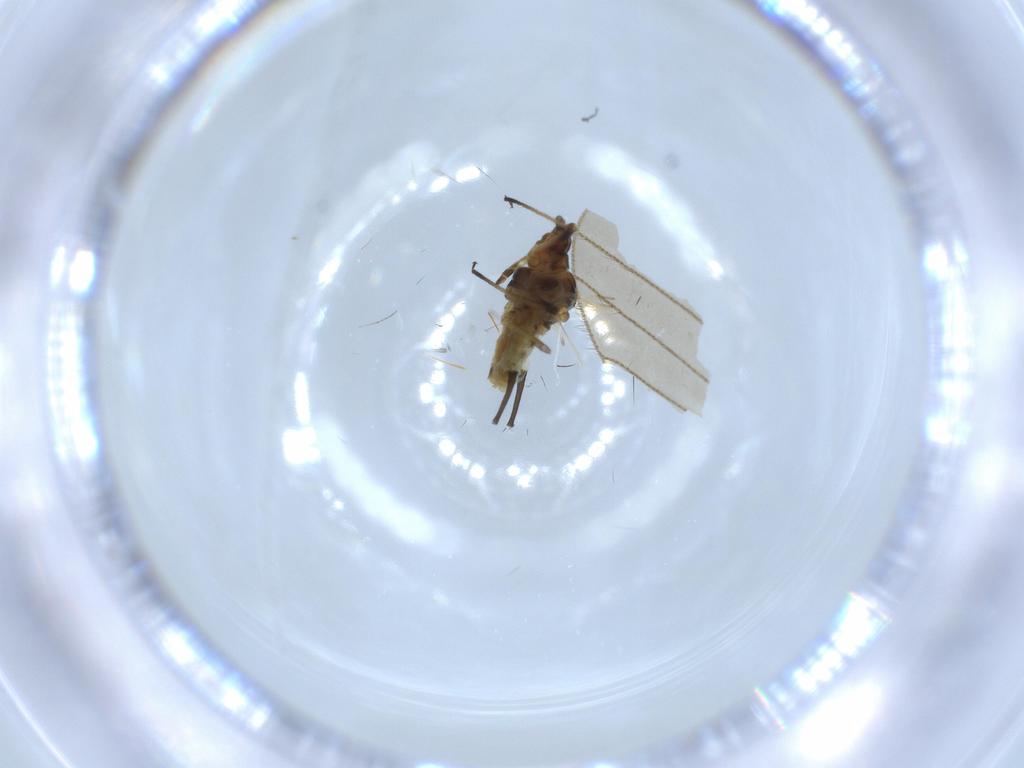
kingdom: Animalia
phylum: Arthropoda
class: Insecta
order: Hemiptera
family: Aphididae
